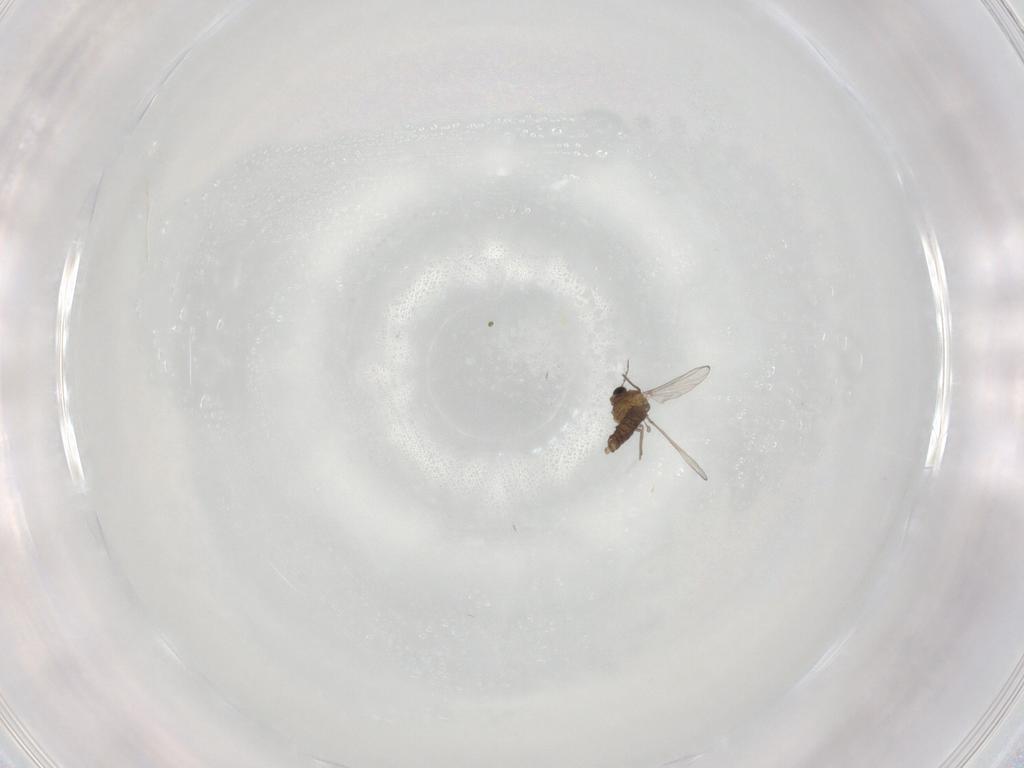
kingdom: Animalia
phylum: Arthropoda
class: Insecta
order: Diptera
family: Chironomidae
